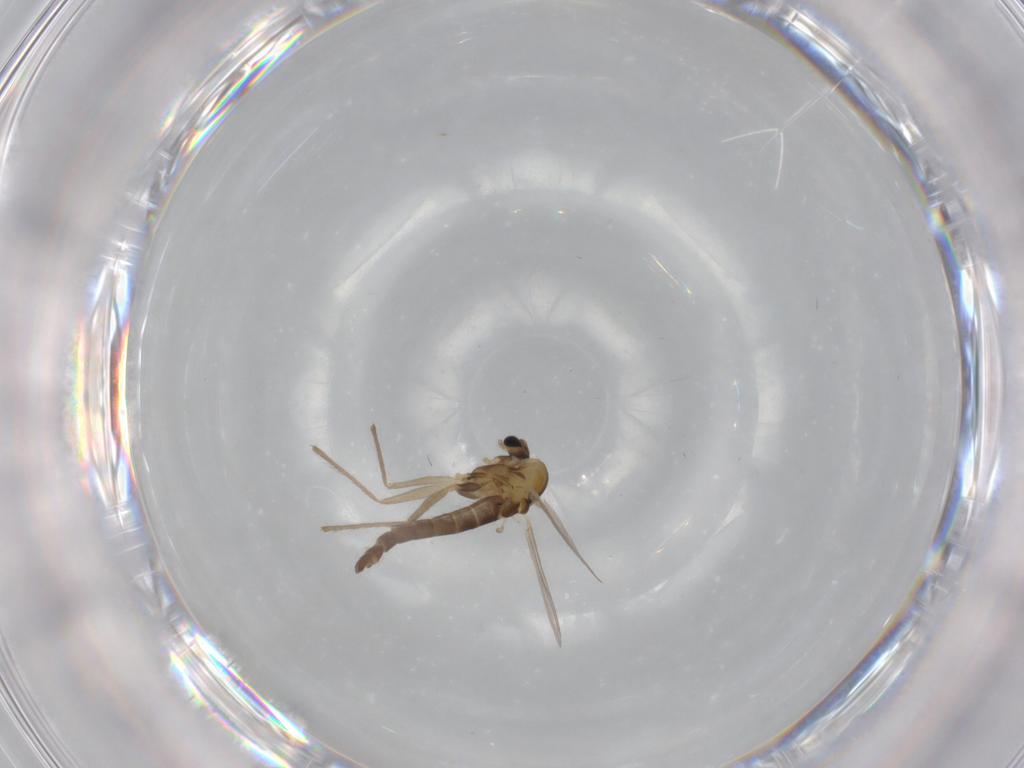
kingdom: Animalia
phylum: Arthropoda
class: Insecta
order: Diptera
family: Chironomidae
